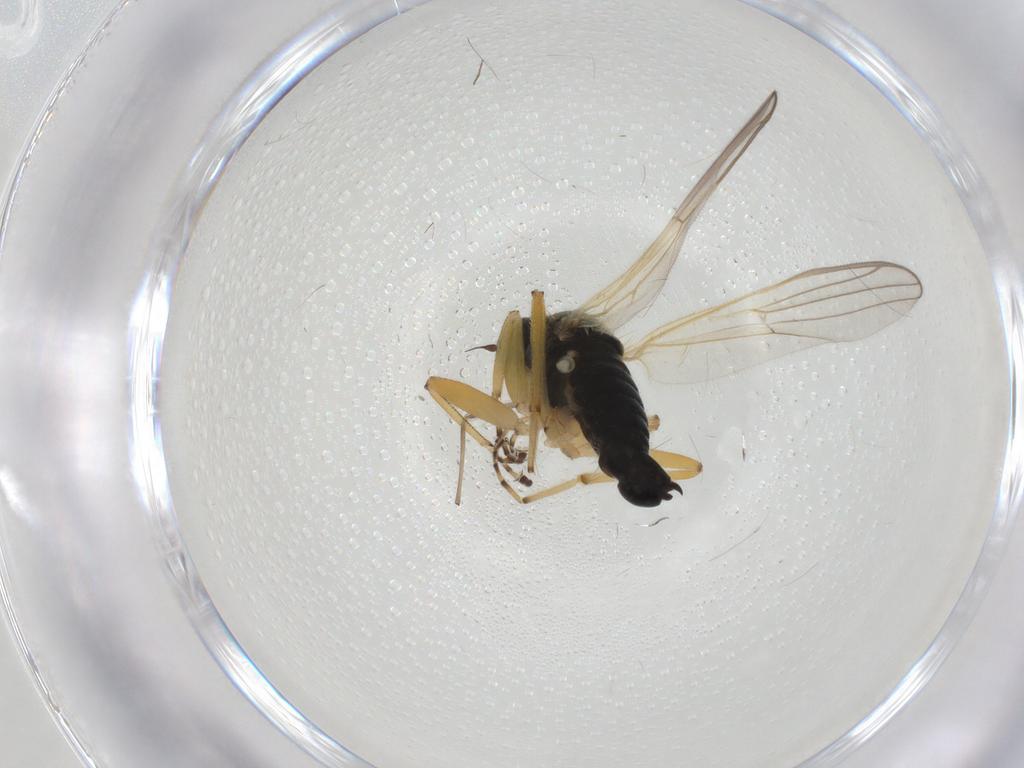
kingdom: Animalia
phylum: Arthropoda
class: Insecta
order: Diptera
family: Hybotidae
